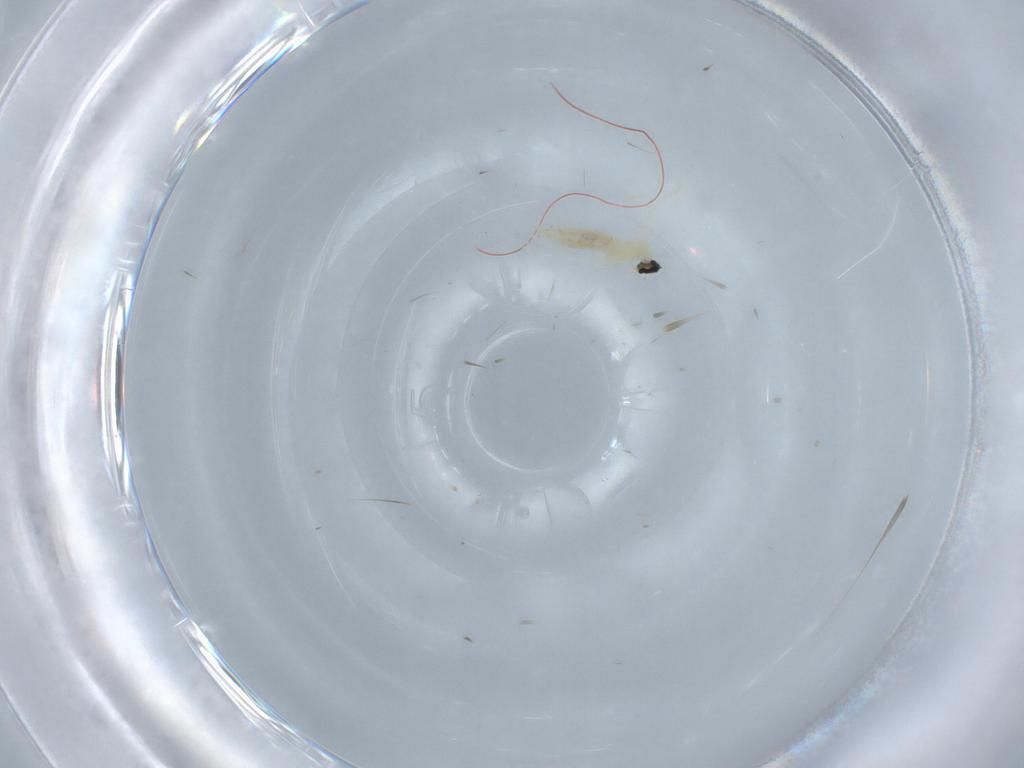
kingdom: Animalia
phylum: Arthropoda
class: Insecta
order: Diptera
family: Cecidomyiidae
